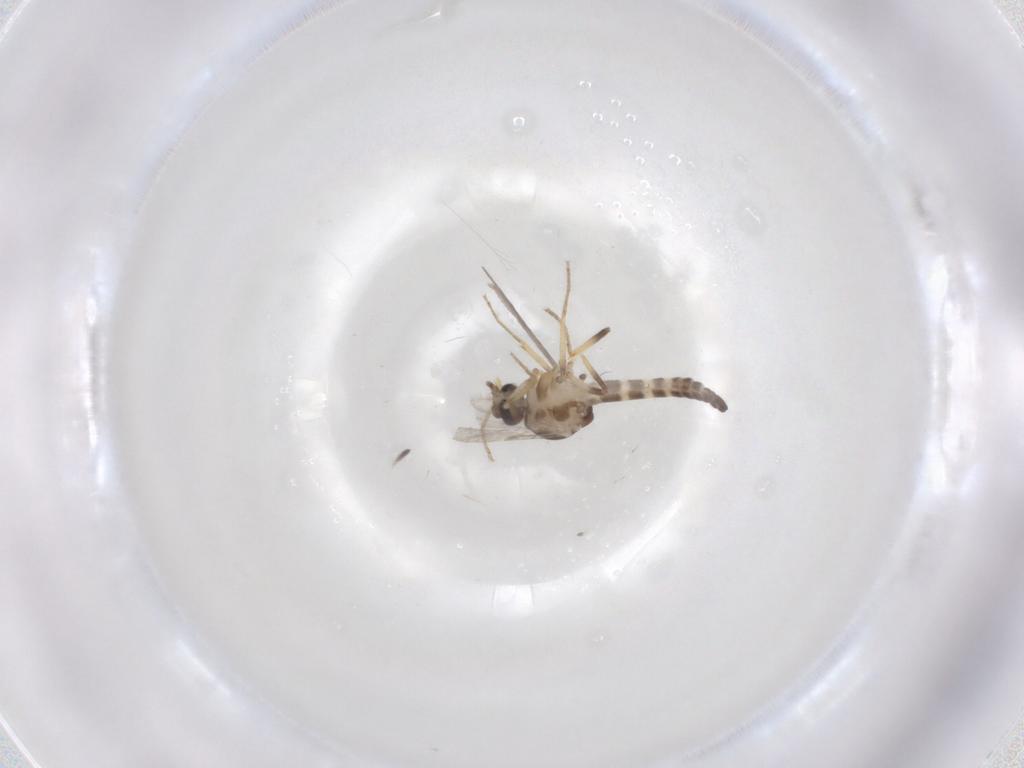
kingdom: Animalia
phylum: Arthropoda
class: Insecta
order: Diptera
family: Ceratopogonidae
